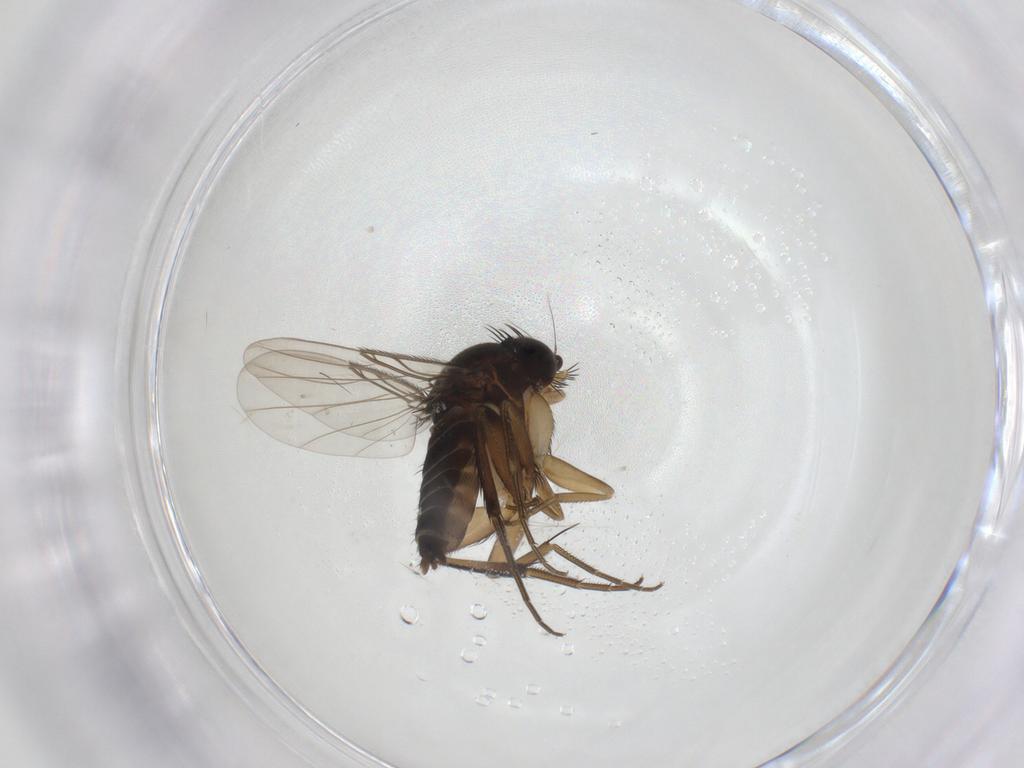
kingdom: Animalia
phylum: Arthropoda
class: Insecta
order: Diptera
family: Phoridae
